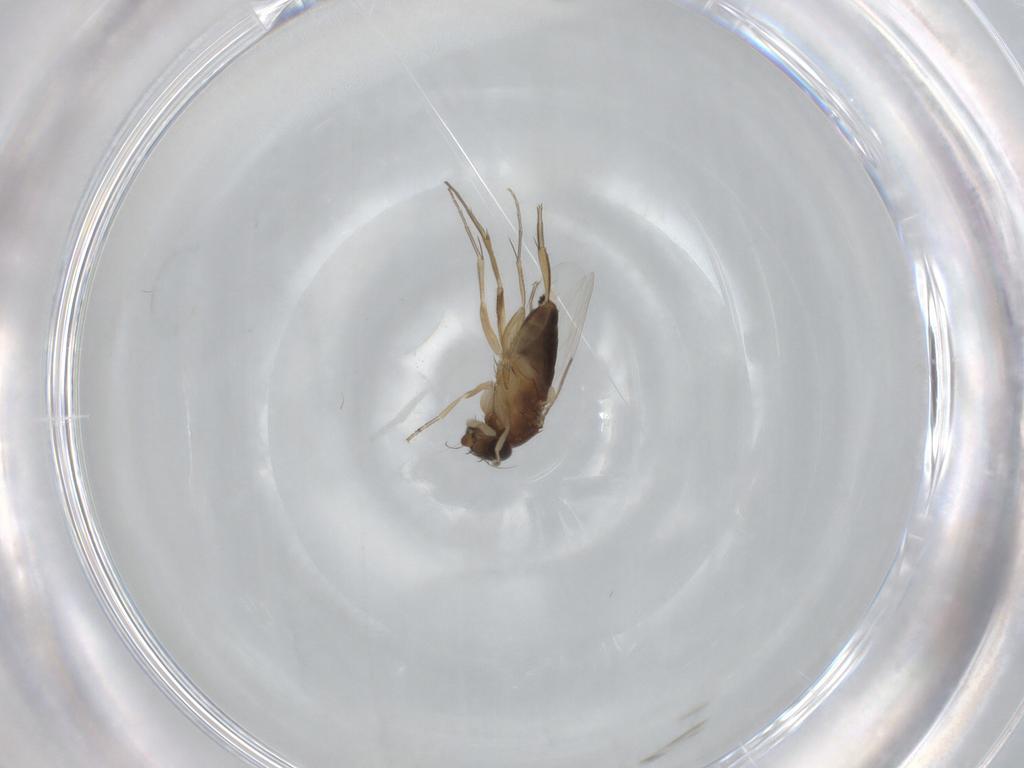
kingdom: Animalia
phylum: Arthropoda
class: Insecta
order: Diptera
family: Phoridae
